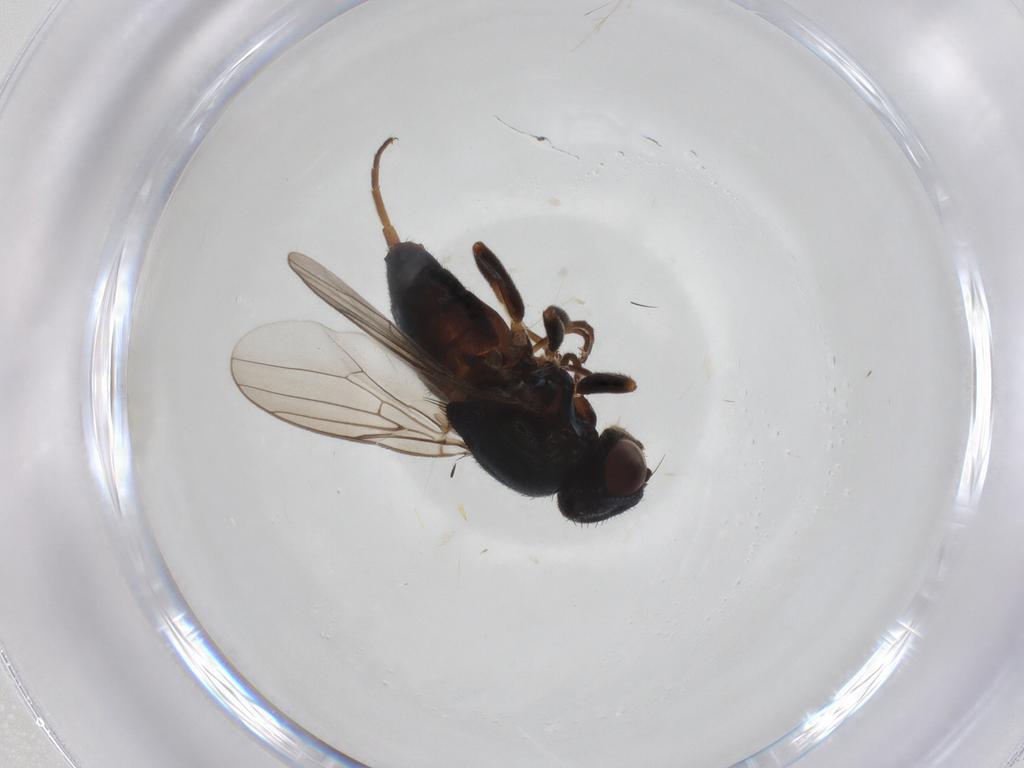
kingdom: Animalia
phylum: Arthropoda
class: Insecta
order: Diptera
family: Chloropidae
